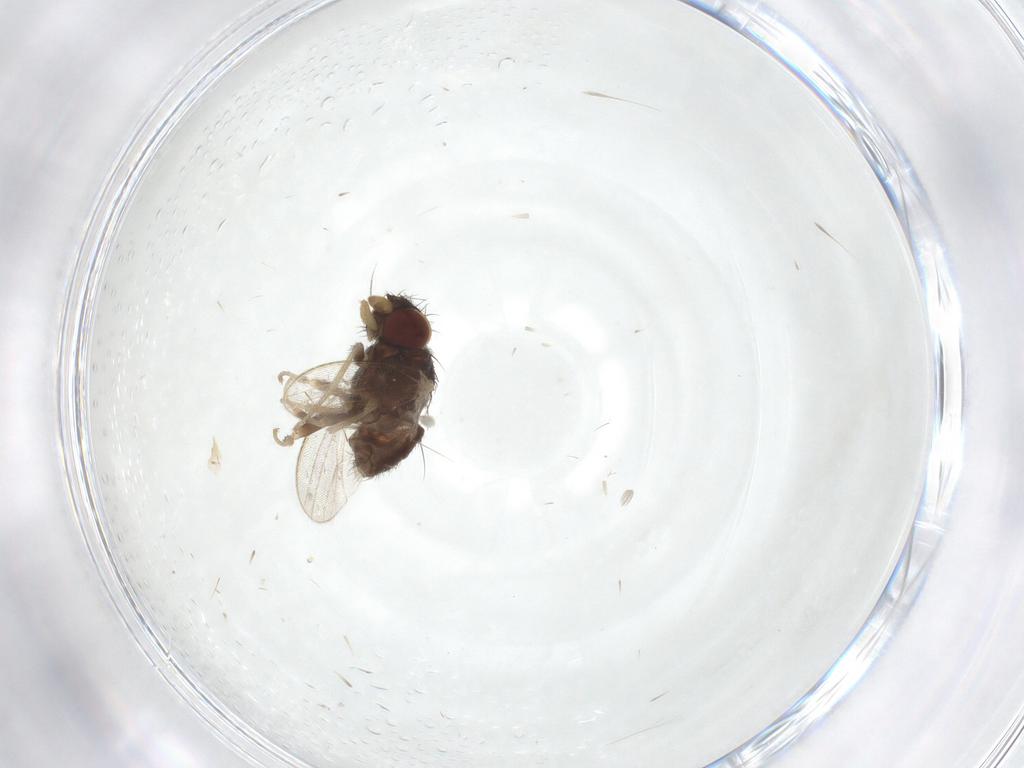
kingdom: Animalia
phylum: Arthropoda
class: Insecta
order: Diptera
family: Milichiidae
